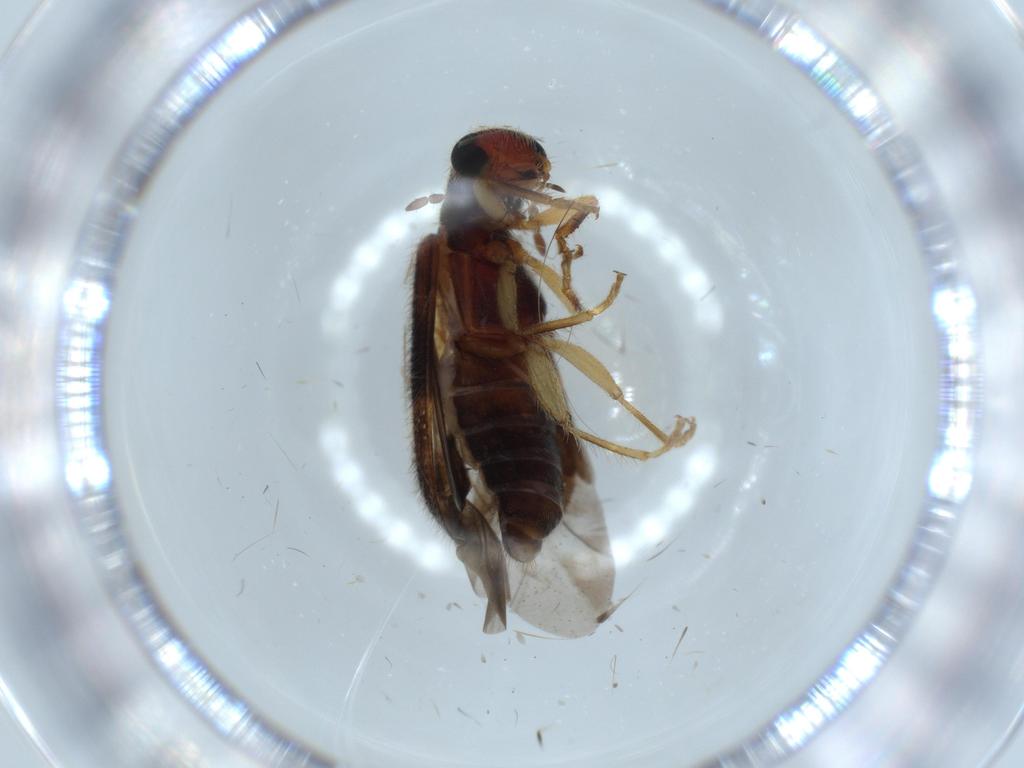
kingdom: Animalia
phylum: Arthropoda
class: Insecta
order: Coleoptera
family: Cleridae
